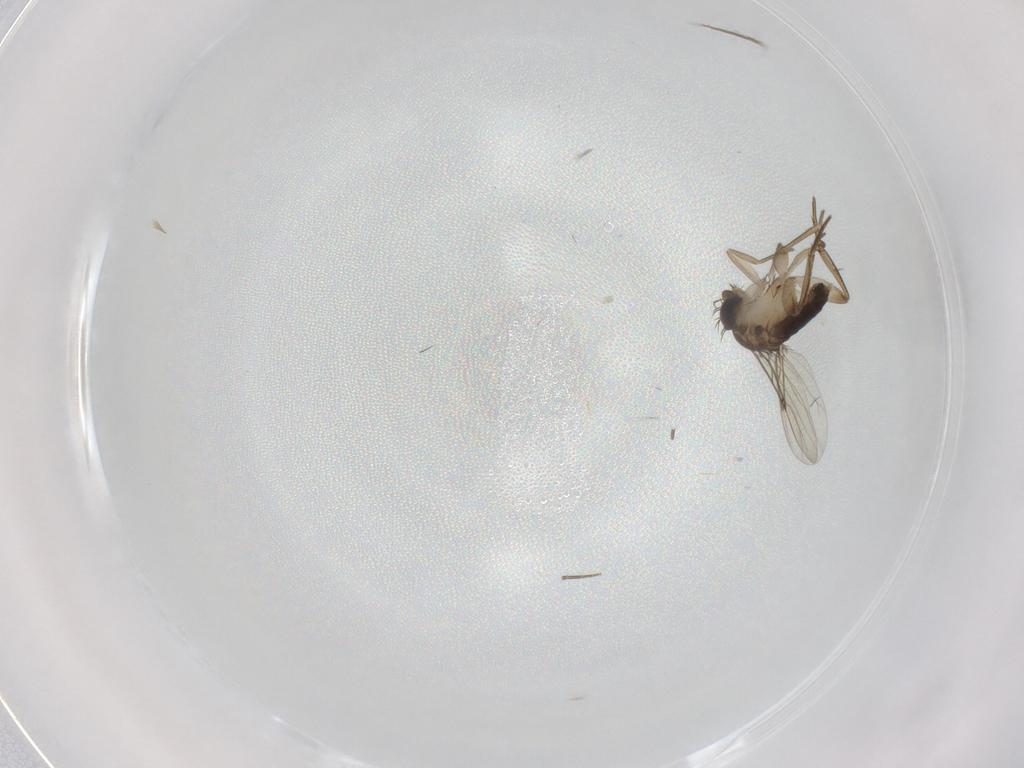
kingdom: Animalia
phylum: Arthropoda
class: Insecta
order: Diptera
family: Phoridae
